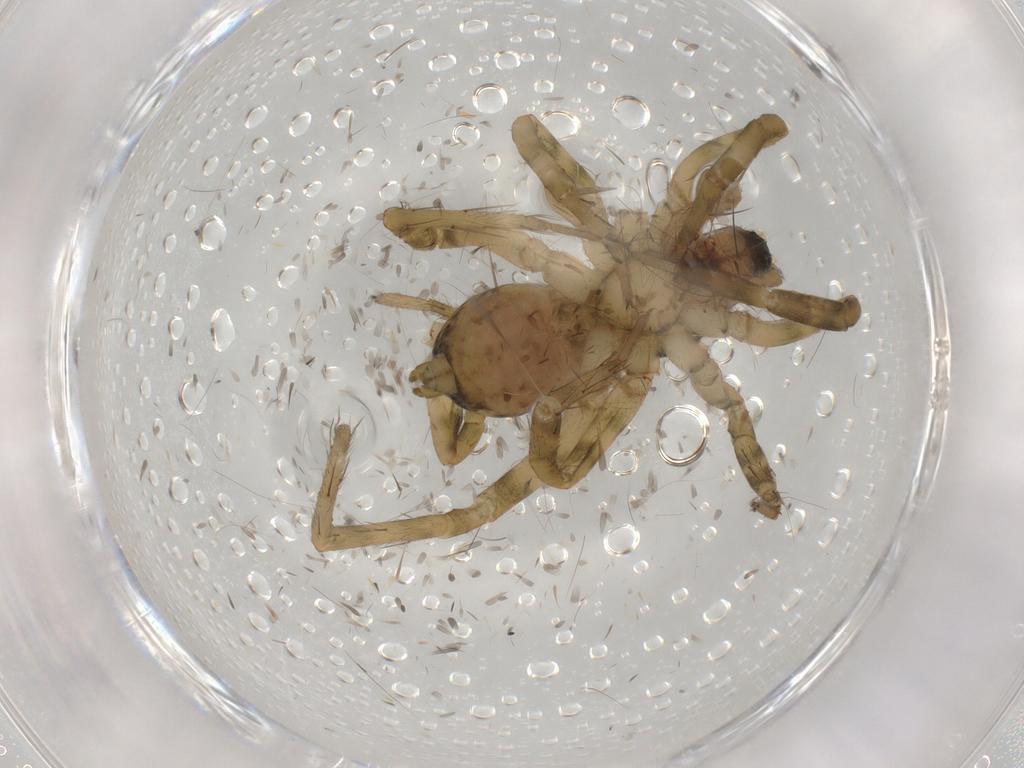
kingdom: Animalia
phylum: Arthropoda
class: Arachnida
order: Araneae
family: Lycosidae
